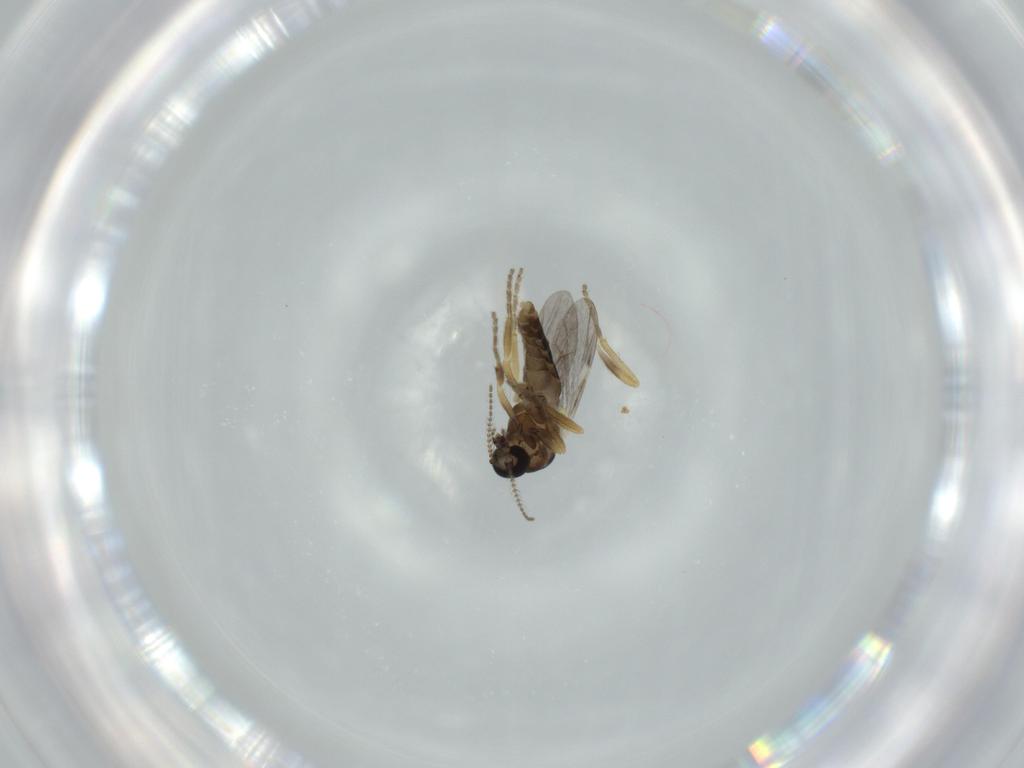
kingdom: Animalia
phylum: Arthropoda
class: Insecta
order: Diptera
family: Ceratopogonidae
